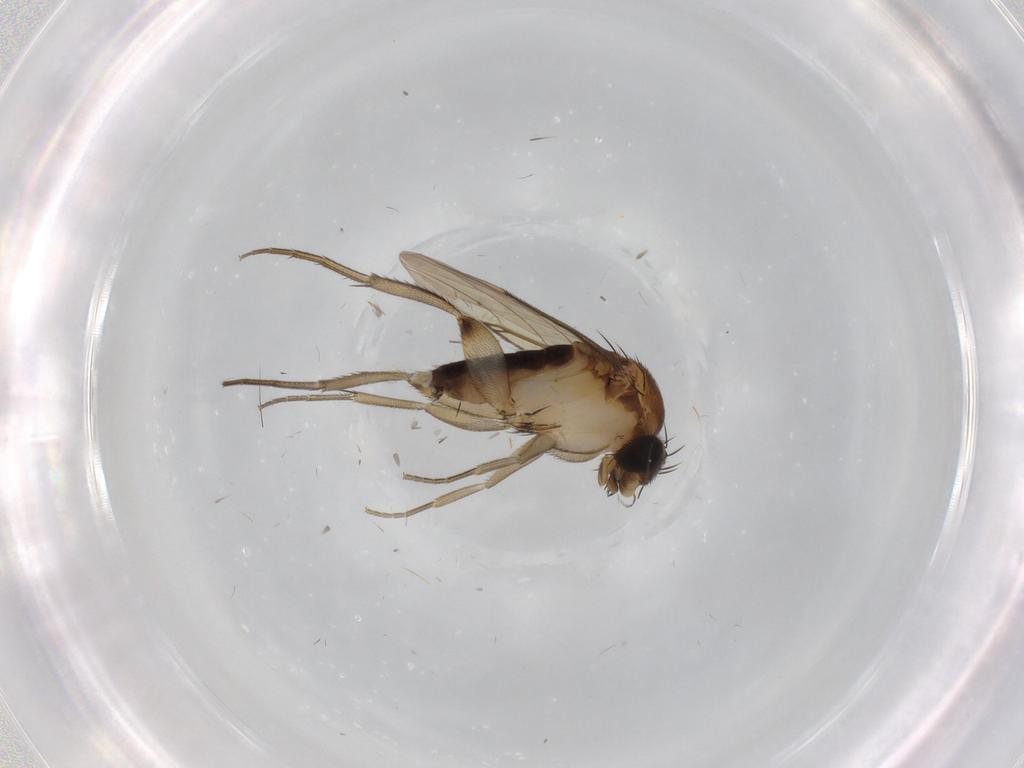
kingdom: Animalia
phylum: Arthropoda
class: Insecta
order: Diptera
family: Phoridae
